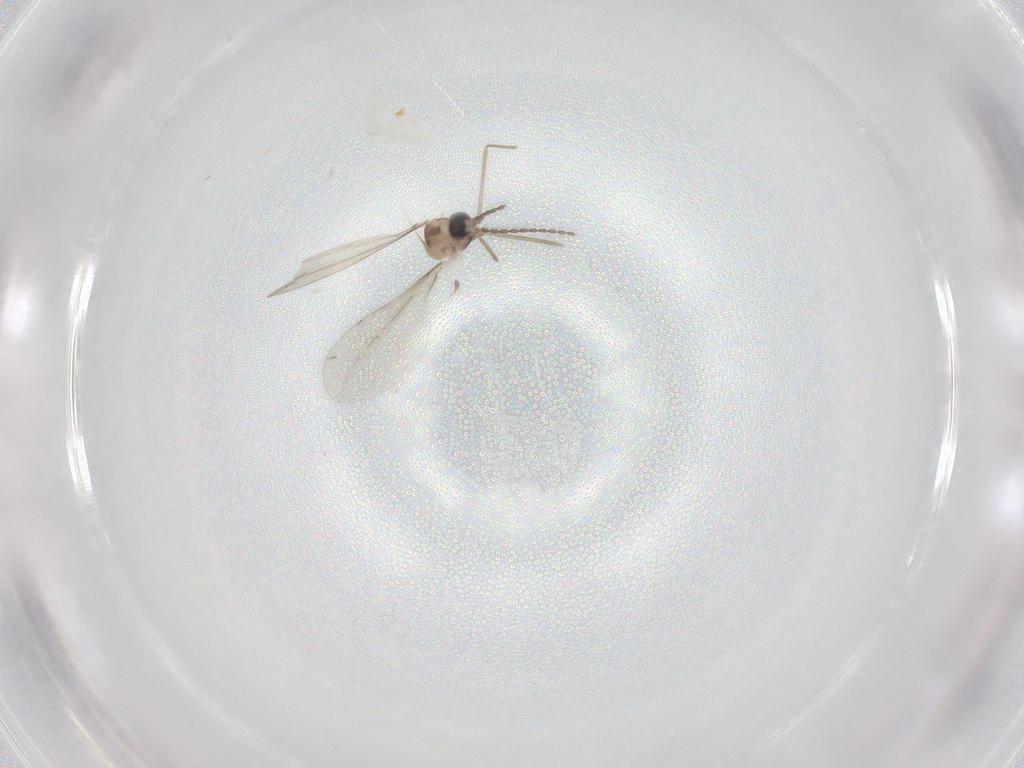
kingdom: Animalia
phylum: Arthropoda
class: Insecta
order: Diptera
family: Cecidomyiidae
